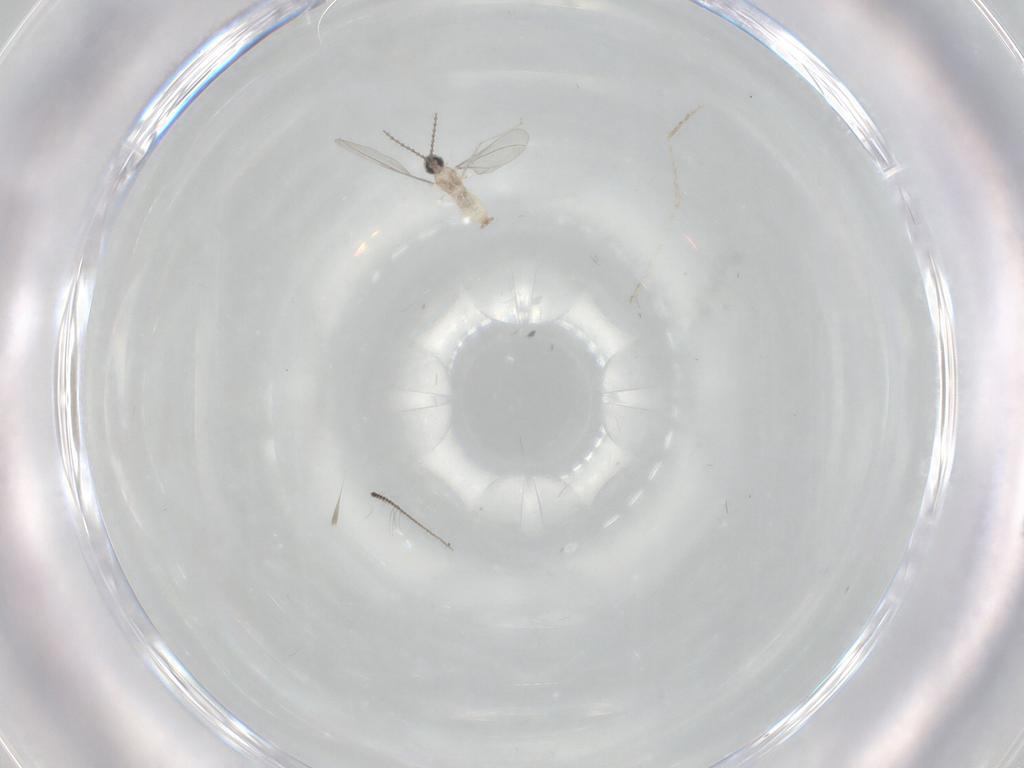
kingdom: Animalia
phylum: Arthropoda
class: Insecta
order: Diptera
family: Cecidomyiidae
